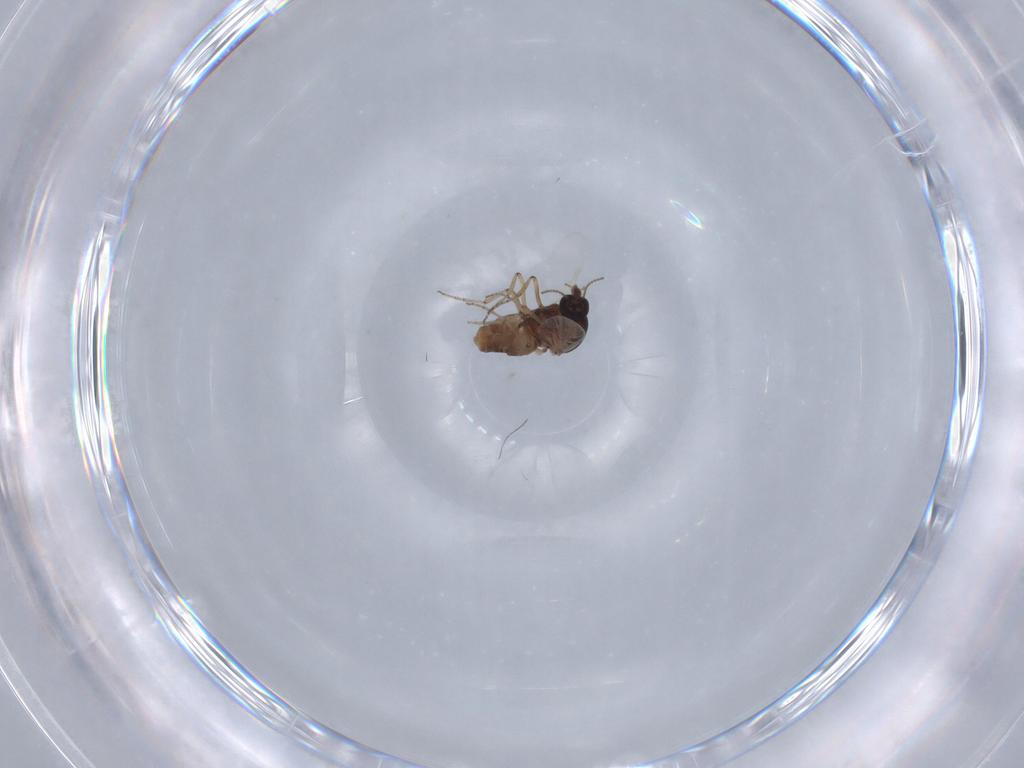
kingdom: Animalia
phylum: Arthropoda
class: Insecta
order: Diptera
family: Ceratopogonidae
